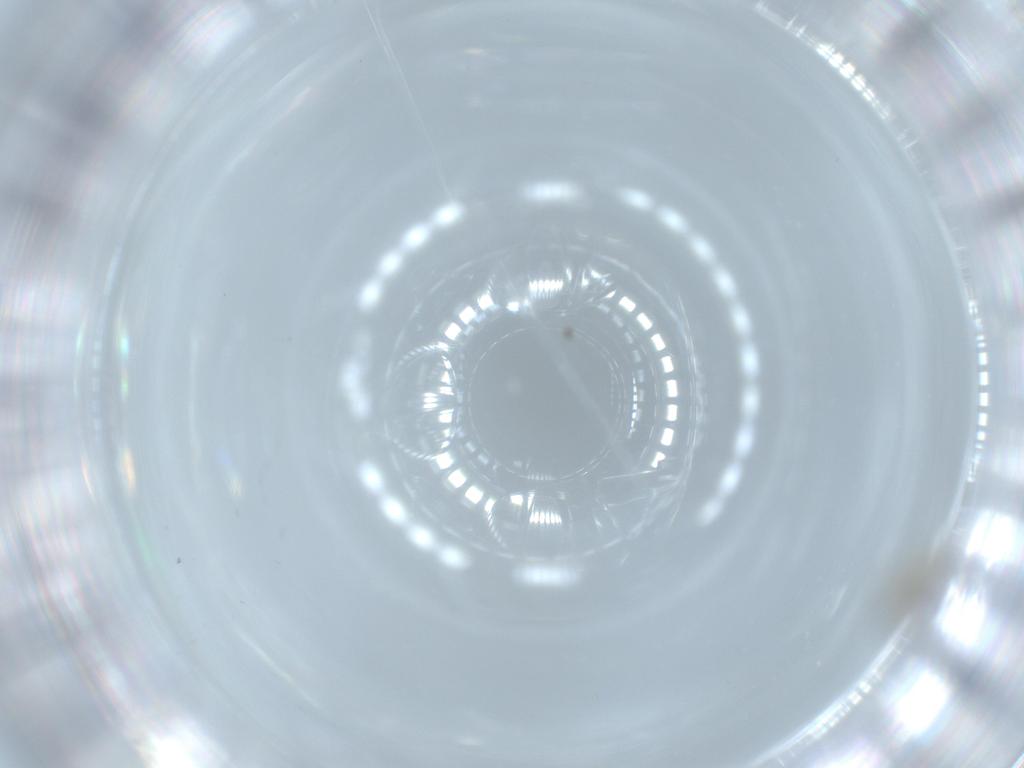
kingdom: Animalia
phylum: Arthropoda
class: Insecta
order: Diptera
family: Cecidomyiidae
